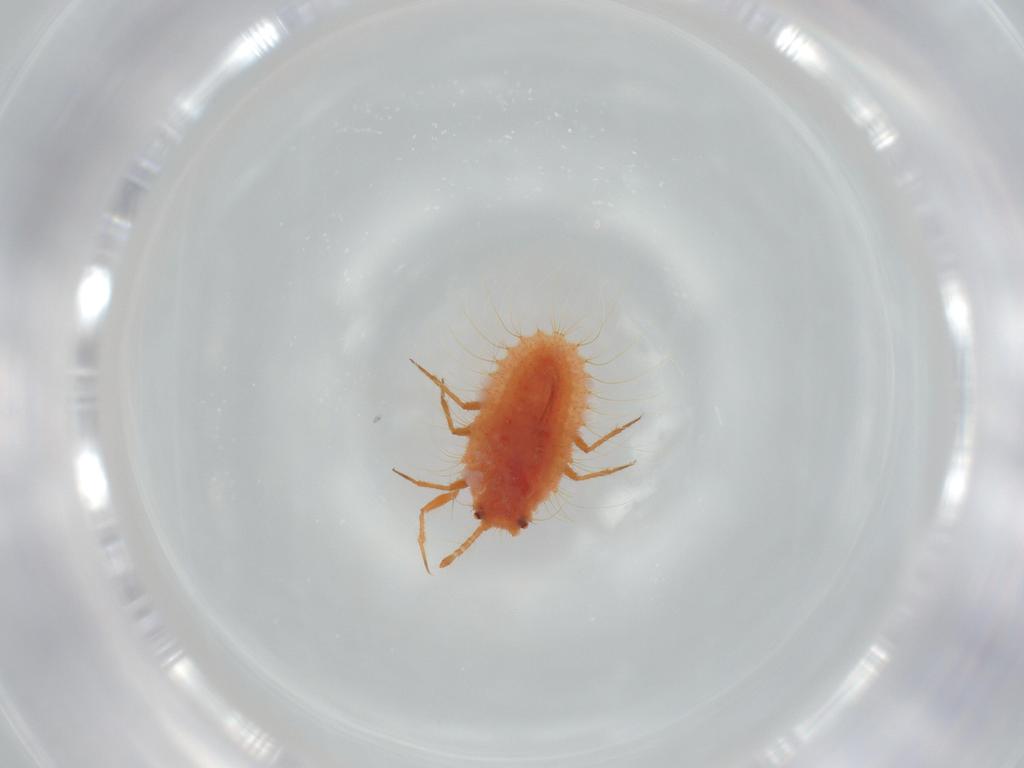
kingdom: Animalia
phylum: Arthropoda
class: Insecta
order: Hemiptera
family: Coccoidea_incertae_sedis
